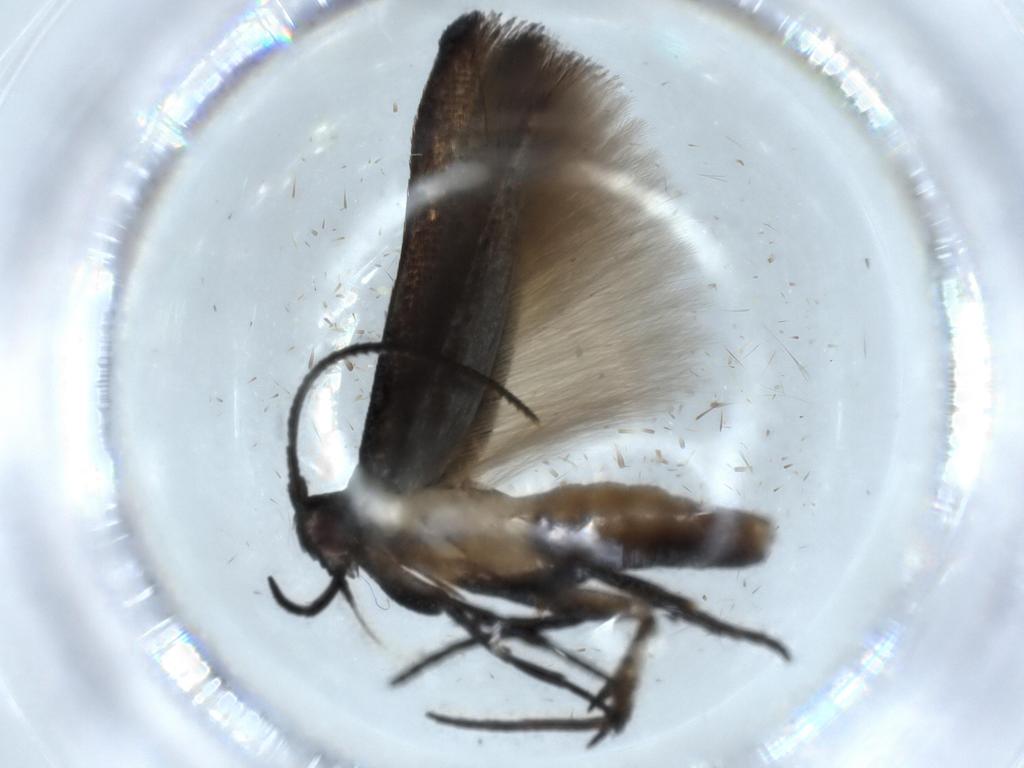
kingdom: Animalia
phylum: Arthropoda
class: Insecta
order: Lepidoptera
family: Cosmopterigidae
